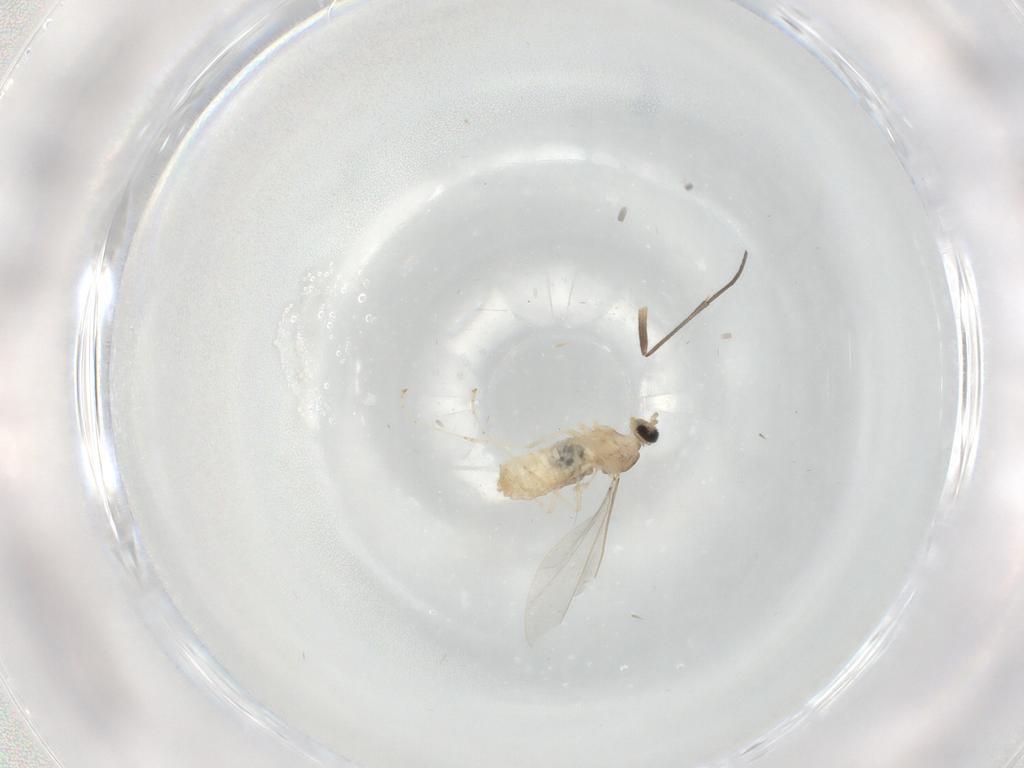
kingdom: Animalia
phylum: Arthropoda
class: Insecta
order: Diptera
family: Cecidomyiidae
